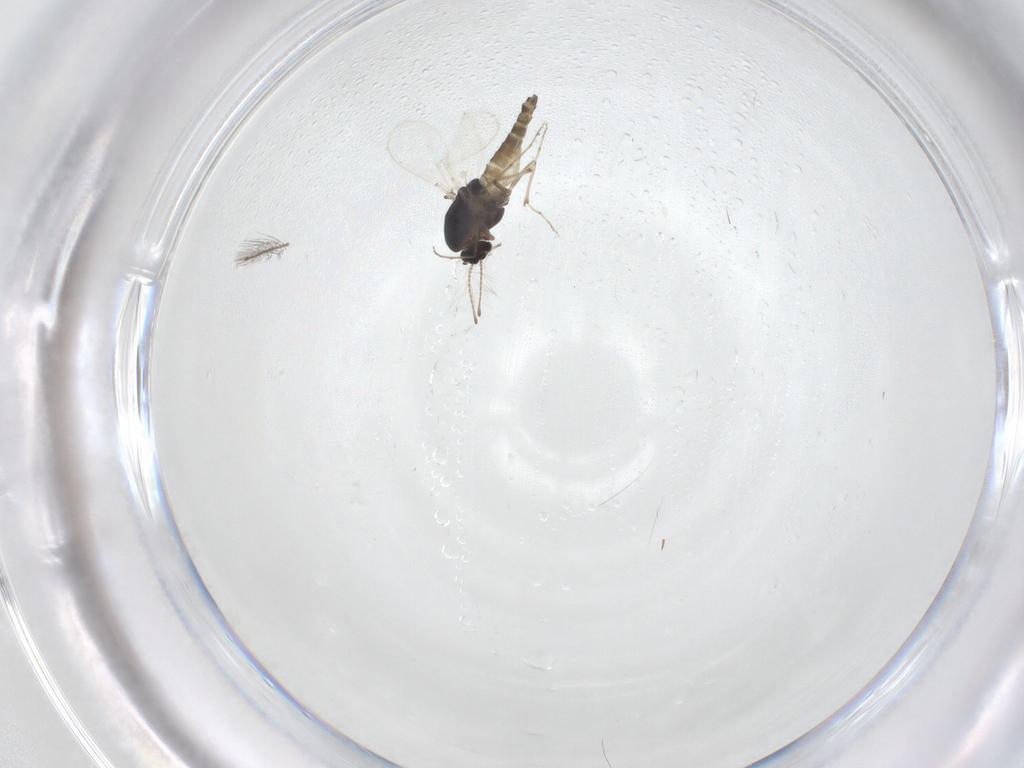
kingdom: Animalia
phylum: Arthropoda
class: Insecta
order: Diptera
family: Chironomidae
